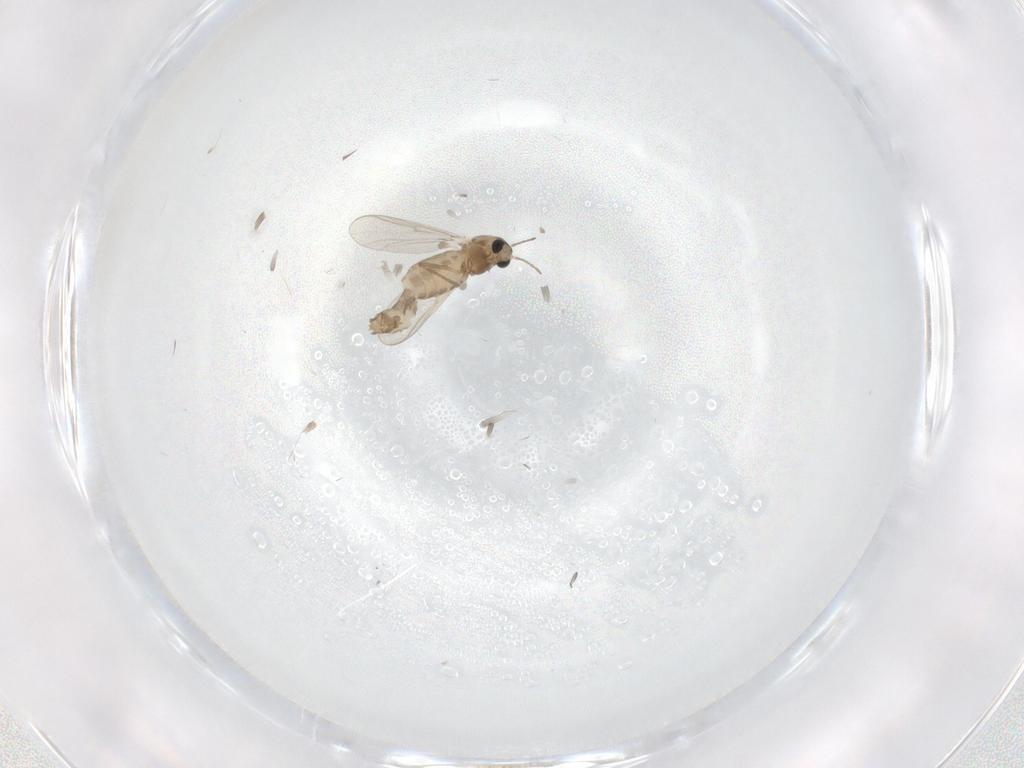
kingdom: Animalia
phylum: Arthropoda
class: Insecta
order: Diptera
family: Chironomidae
